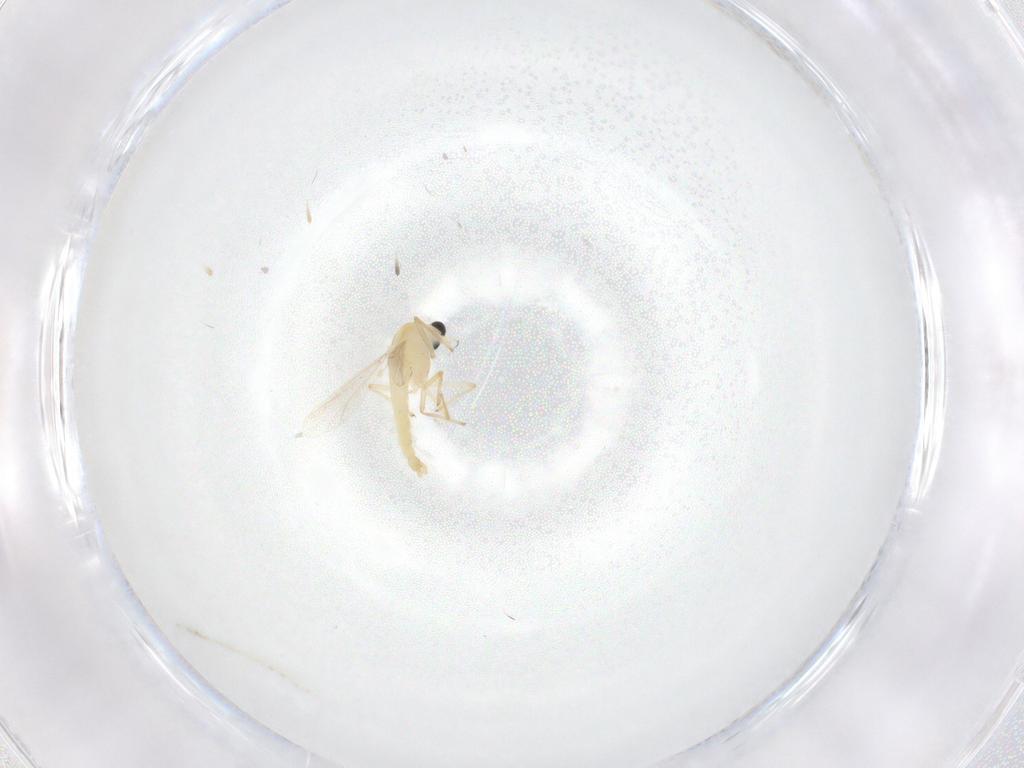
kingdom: Animalia
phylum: Arthropoda
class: Insecta
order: Diptera
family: Chironomidae
